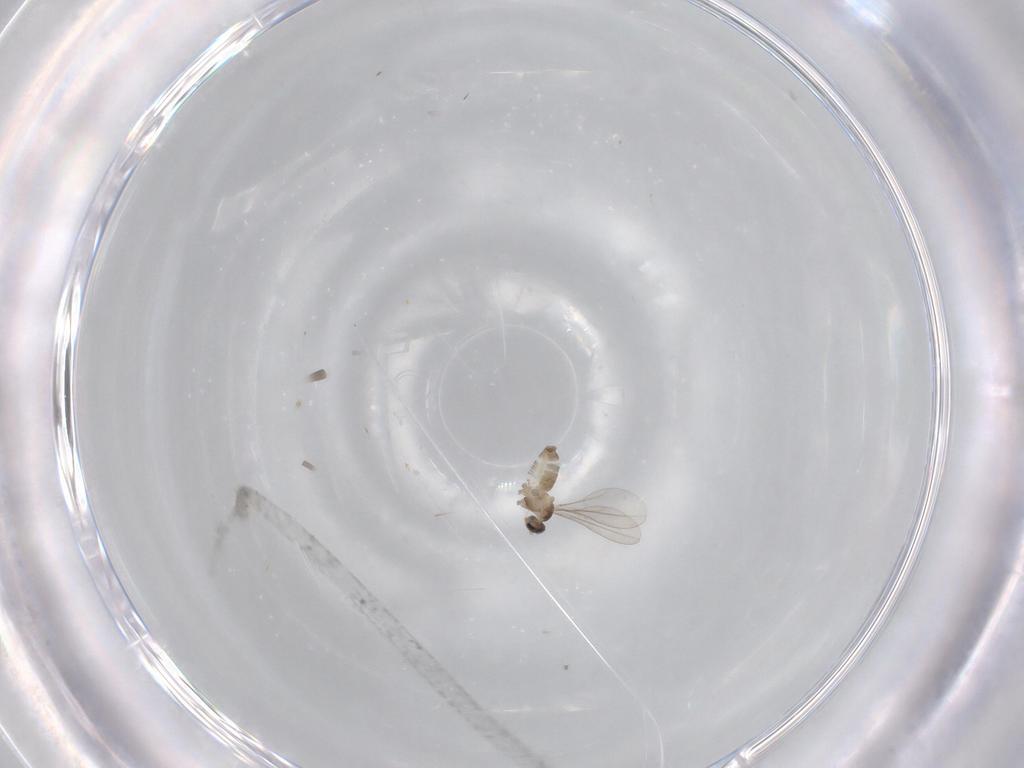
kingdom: Animalia
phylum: Arthropoda
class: Insecta
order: Diptera
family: Cecidomyiidae
